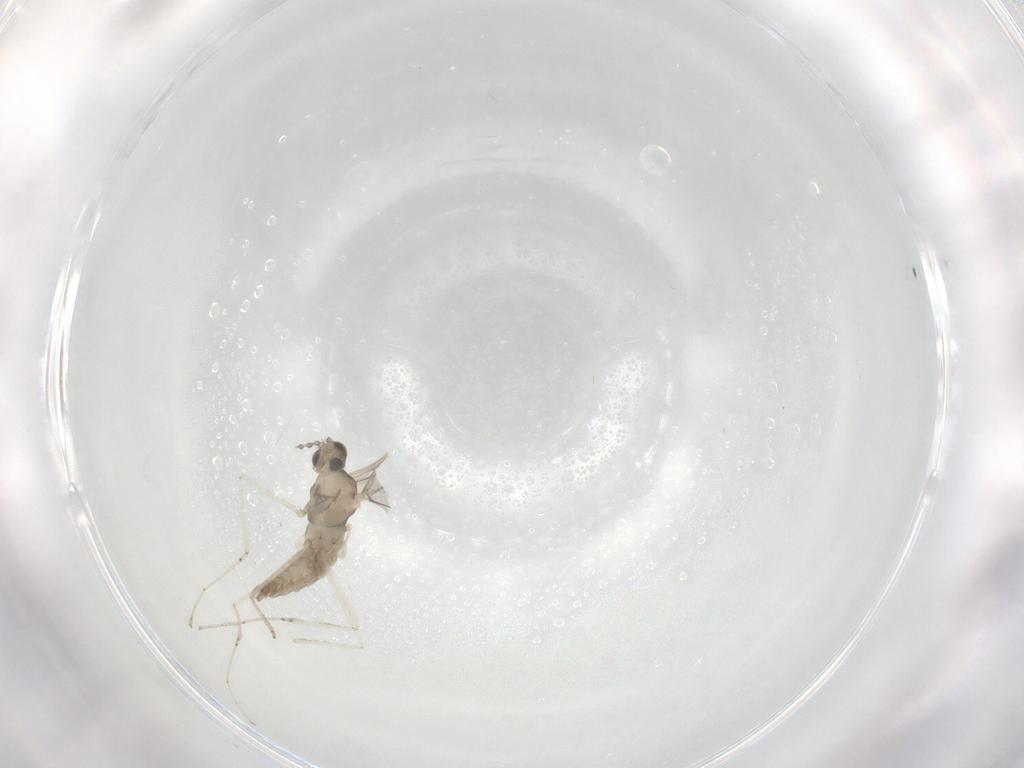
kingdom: Animalia
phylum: Arthropoda
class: Insecta
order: Diptera
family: Cecidomyiidae
